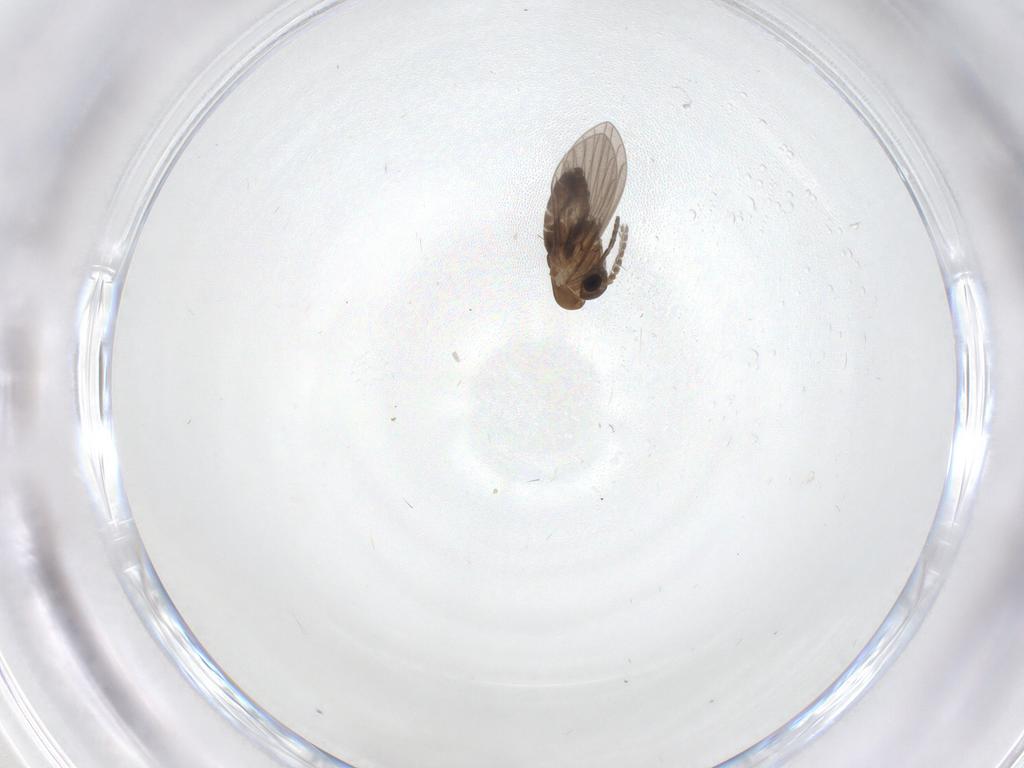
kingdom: Animalia
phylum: Arthropoda
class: Insecta
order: Diptera
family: Psychodidae
